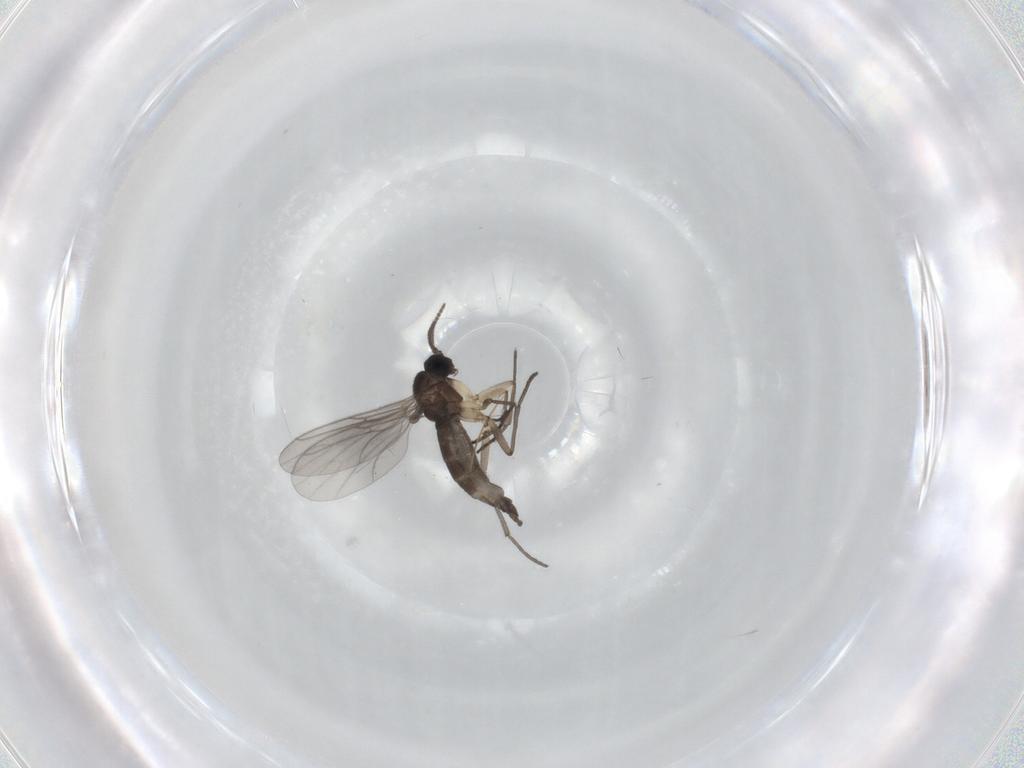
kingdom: Animalia
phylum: Arthropoda
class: Insecta
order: Diptera
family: Sciaridae
